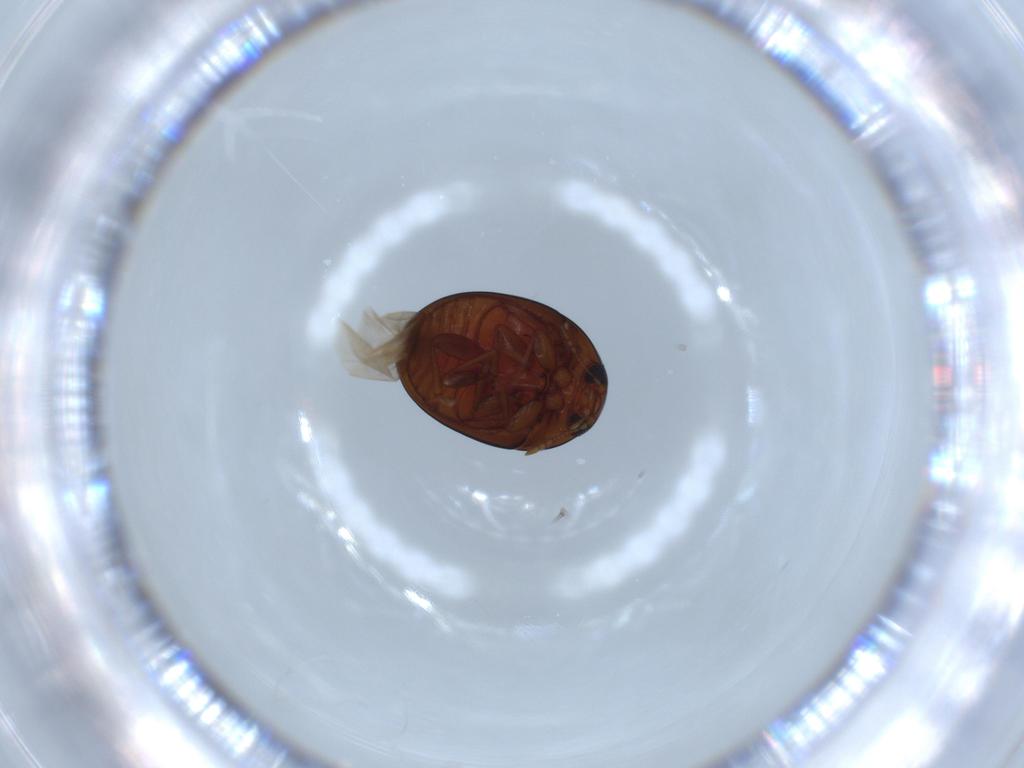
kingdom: Animalia
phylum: Arthropoda
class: Insecta
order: Coleoptera
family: Phalacridae
